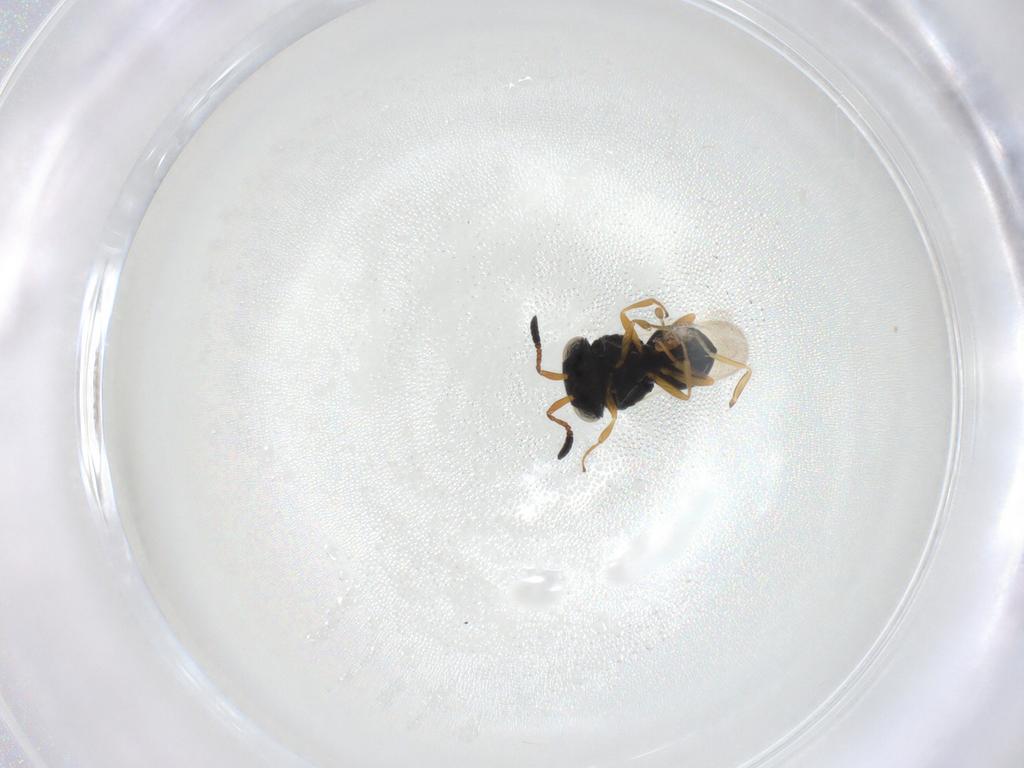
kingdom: Animalia
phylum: Arthropoda
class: Insecta
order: Hymenoptera
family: Scelionidae
